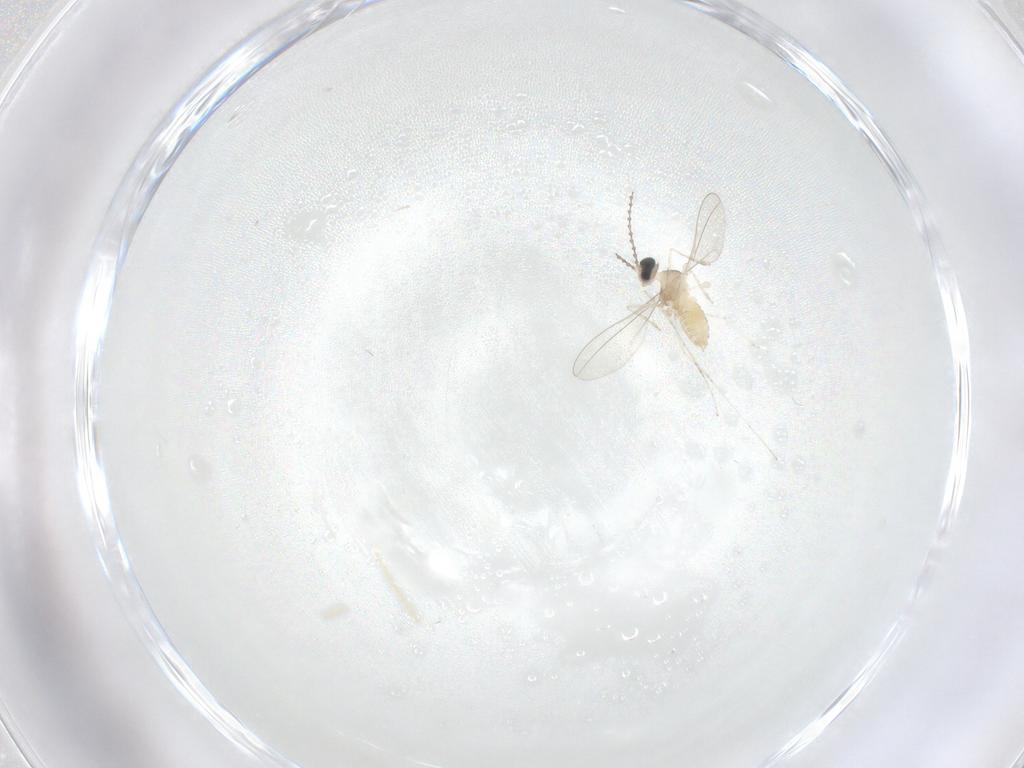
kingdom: Animalia
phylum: Arthropoda
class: Insecta
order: Diptera
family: Cecidomyiidae
